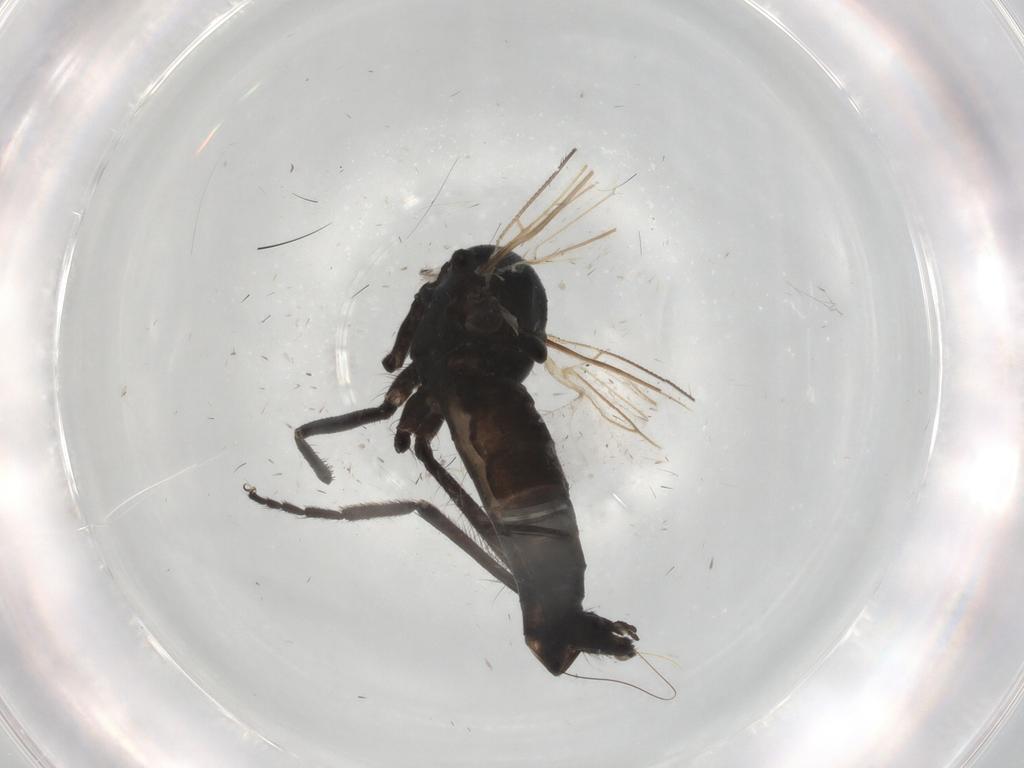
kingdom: Animalia
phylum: Arthropoda
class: Insecta
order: Diptera
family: Empididae
